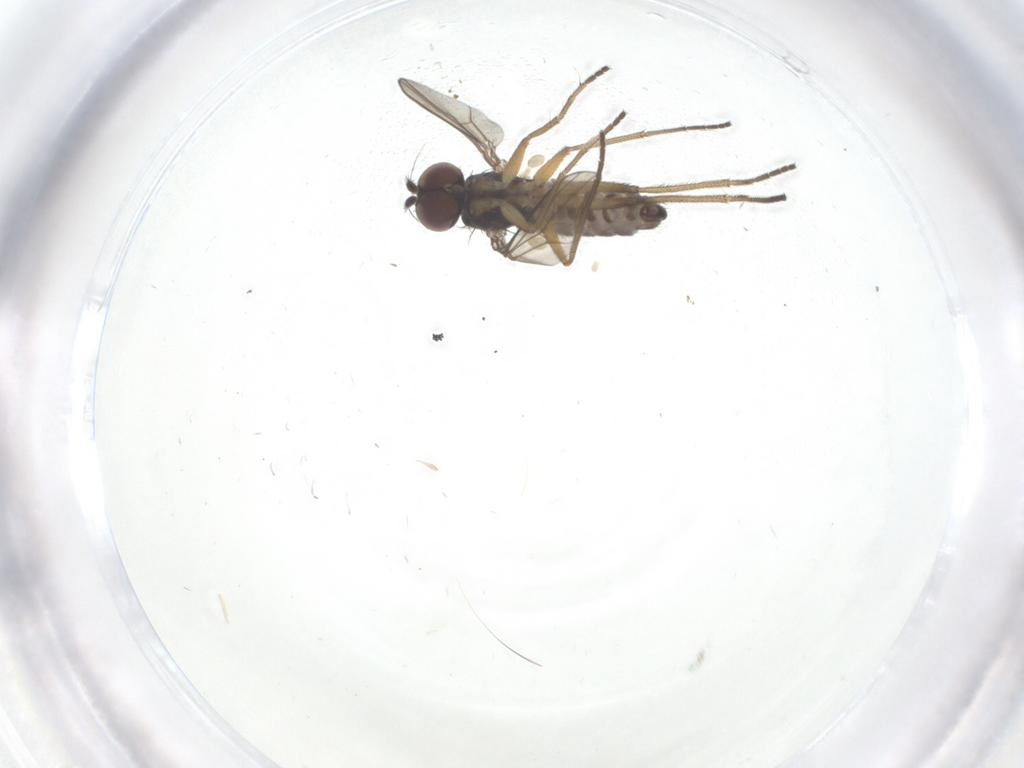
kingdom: Animalia
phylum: Arthropoda
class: Insecta
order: Diptera
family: Dolichopodidae
